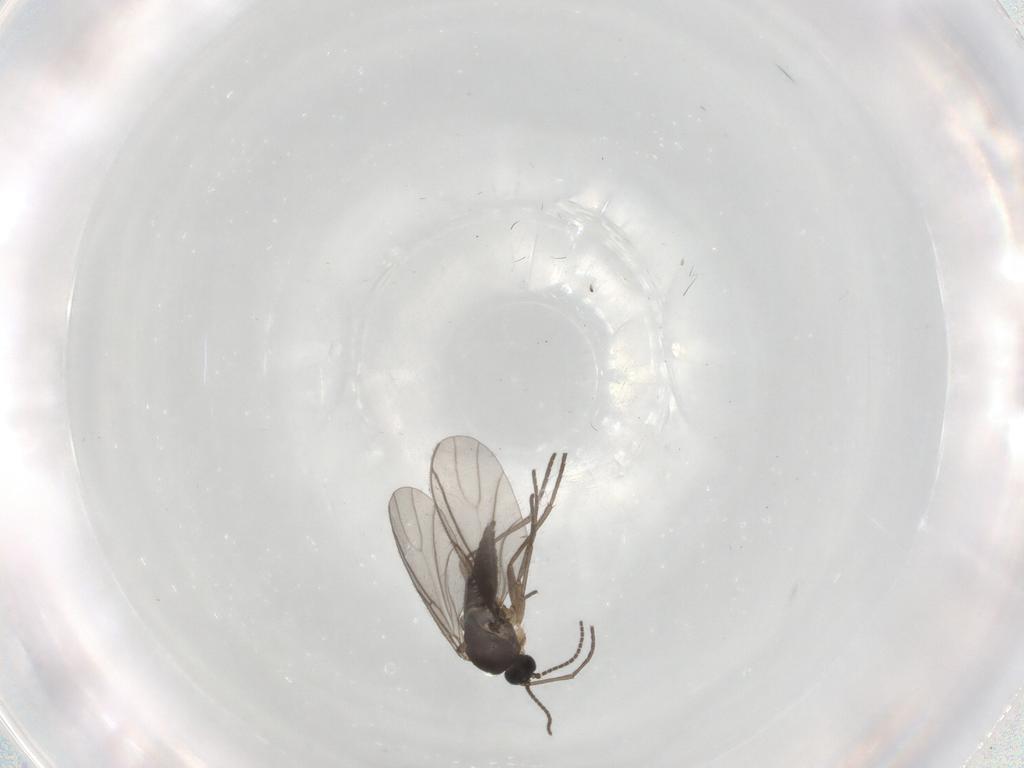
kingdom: Animalia
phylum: Arthropoda
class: Insecta
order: Diptera
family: Sciaridae
